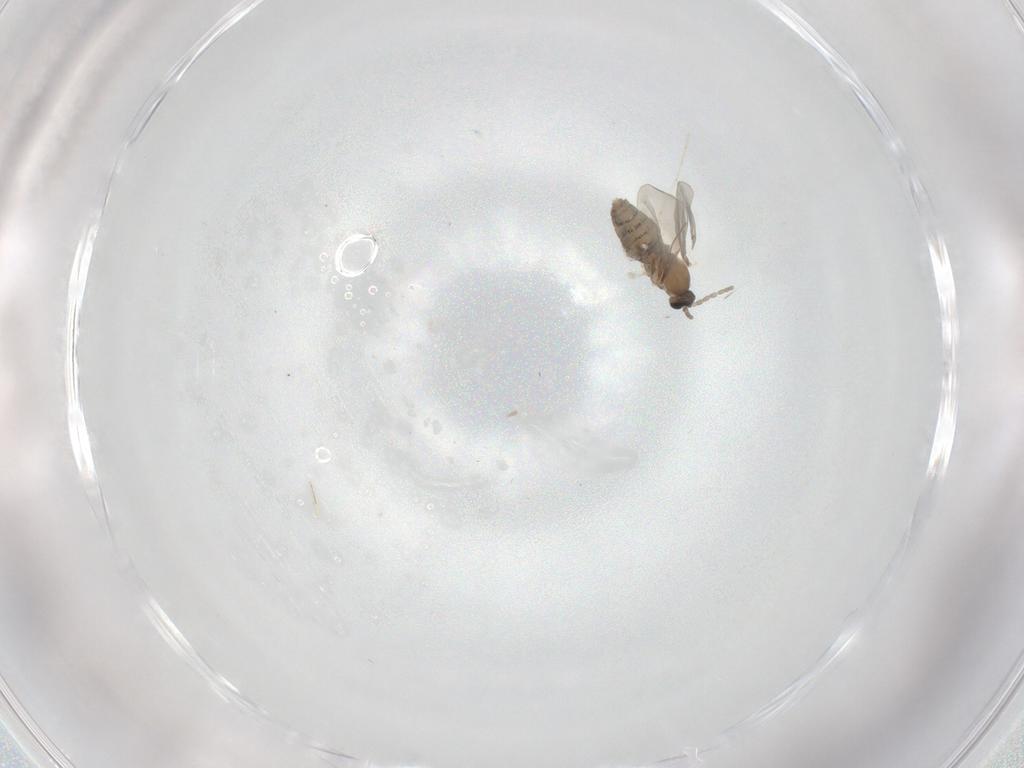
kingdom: Animalia
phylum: Arthropoda
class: Insecta
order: Diptera
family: Cecidomyiidae
